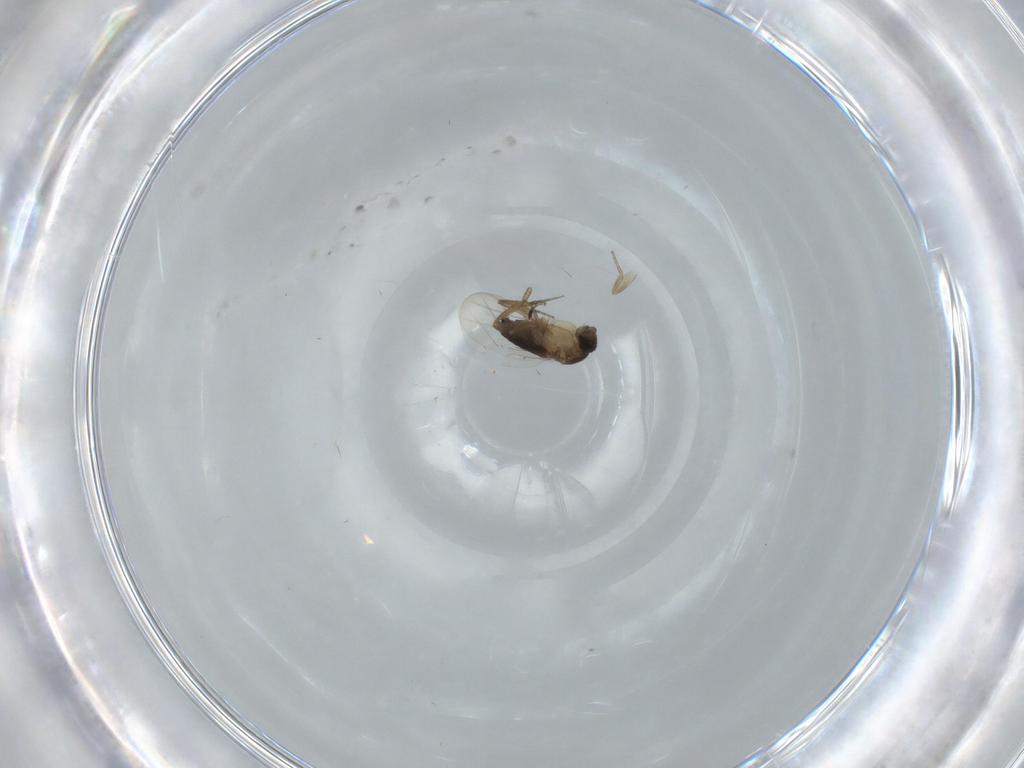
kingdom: Animalia
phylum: Arthropoda
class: Insecta
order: Diptera
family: Phoridae
